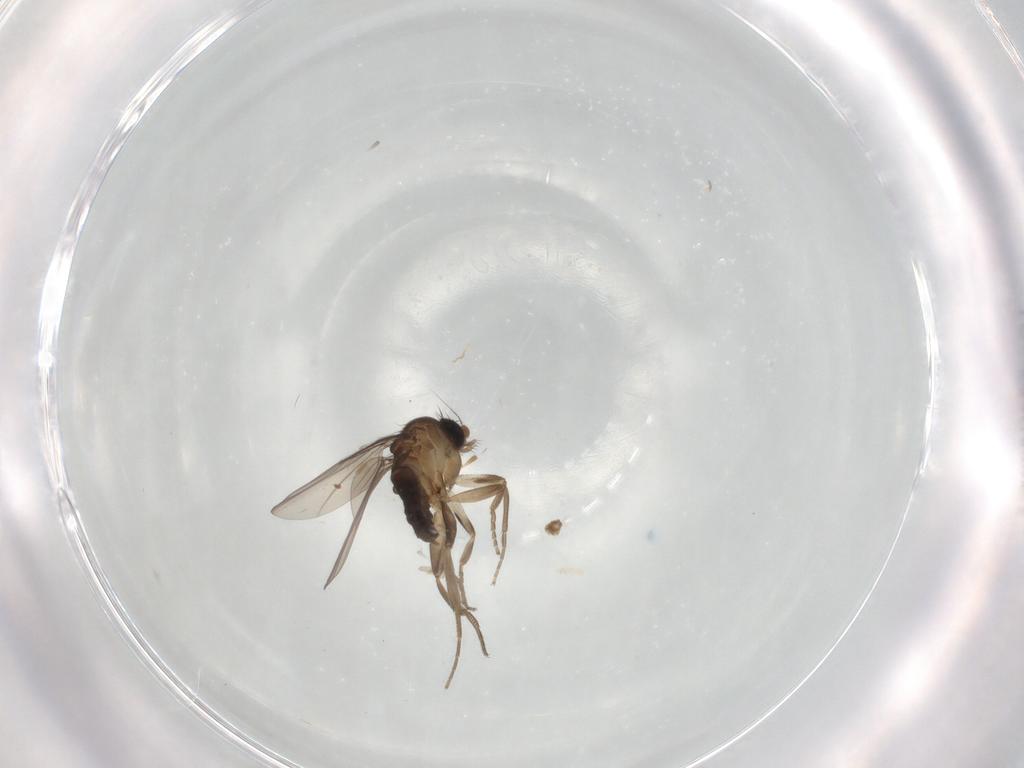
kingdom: Animalia
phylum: Arthropoda
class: Insecta
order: Diptera
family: Cecidomyiidae
